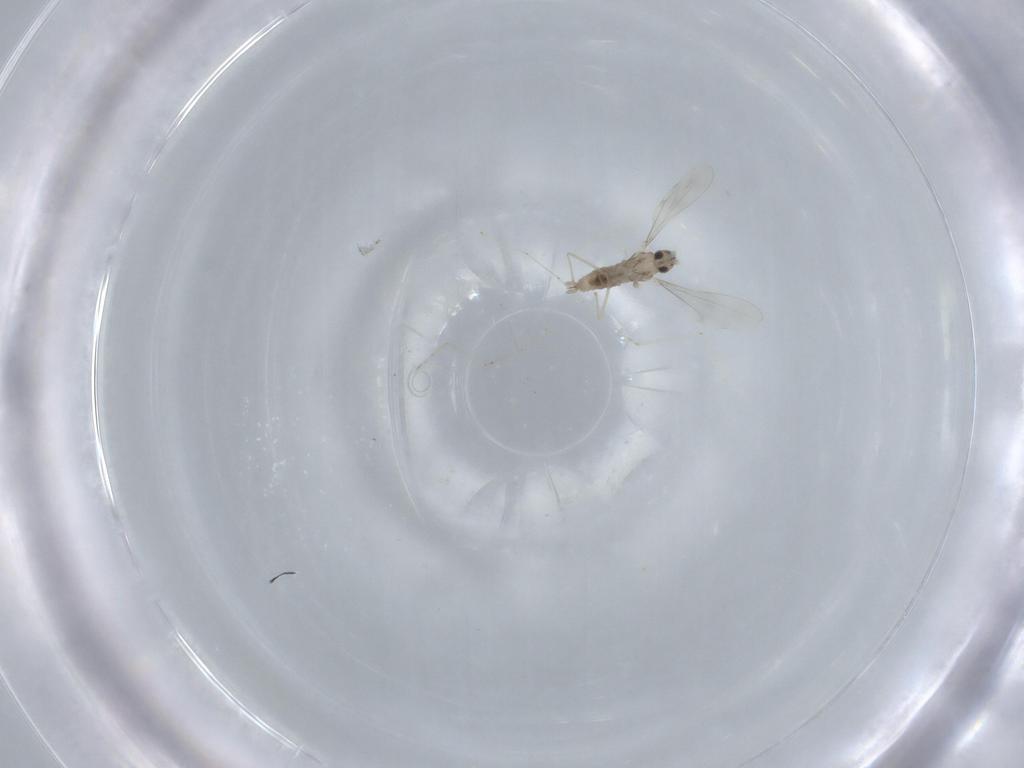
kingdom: Animalia
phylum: Arthropoda
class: Insecta
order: Diptera
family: Cecidomyiidae
